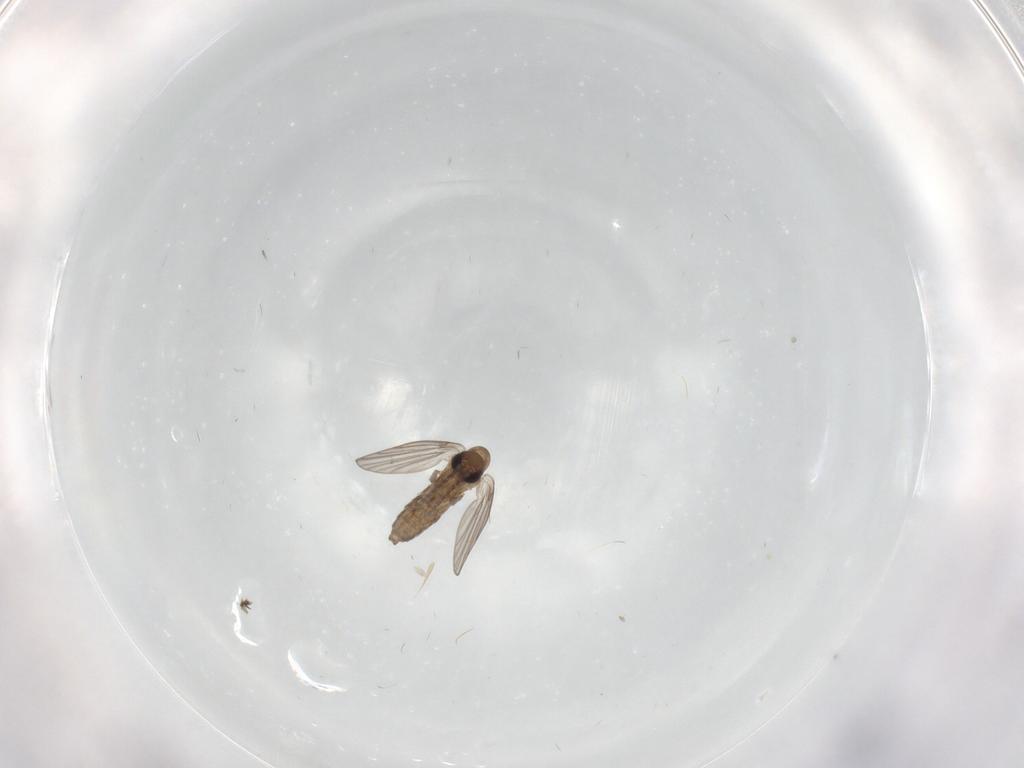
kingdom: Animalia
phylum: Arthropoda
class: Insecta
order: Diptera
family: Cecidomyiidae
